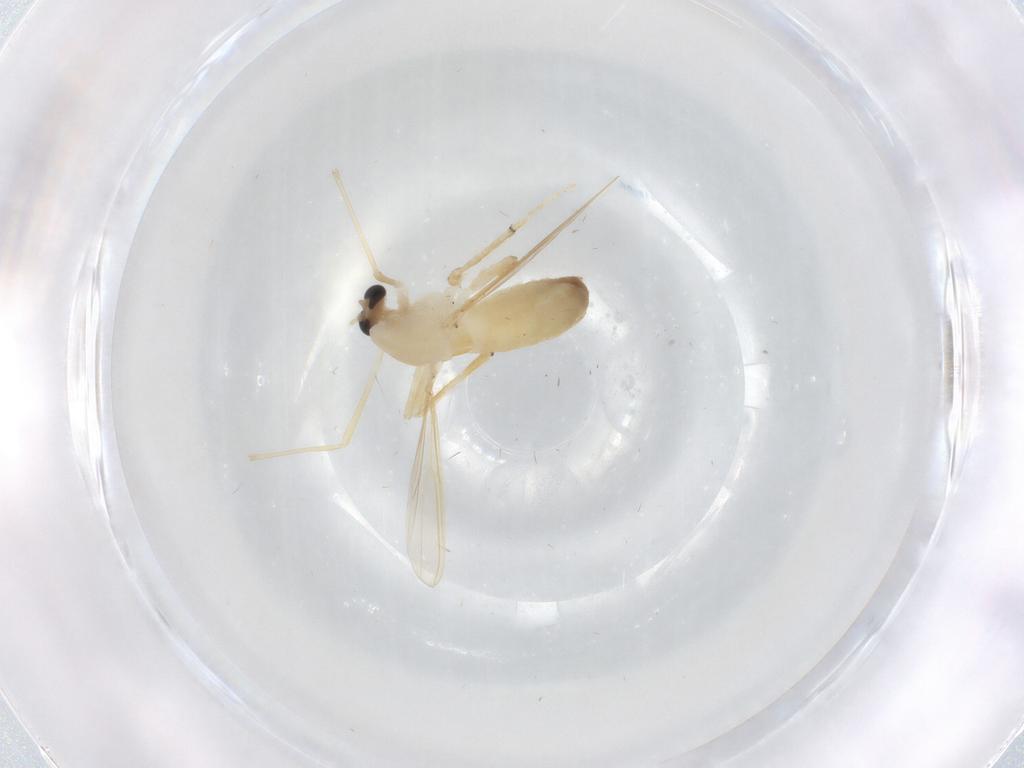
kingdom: Animalia
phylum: Arthropoda
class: Insecta
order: Diptera
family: Chironomidae
